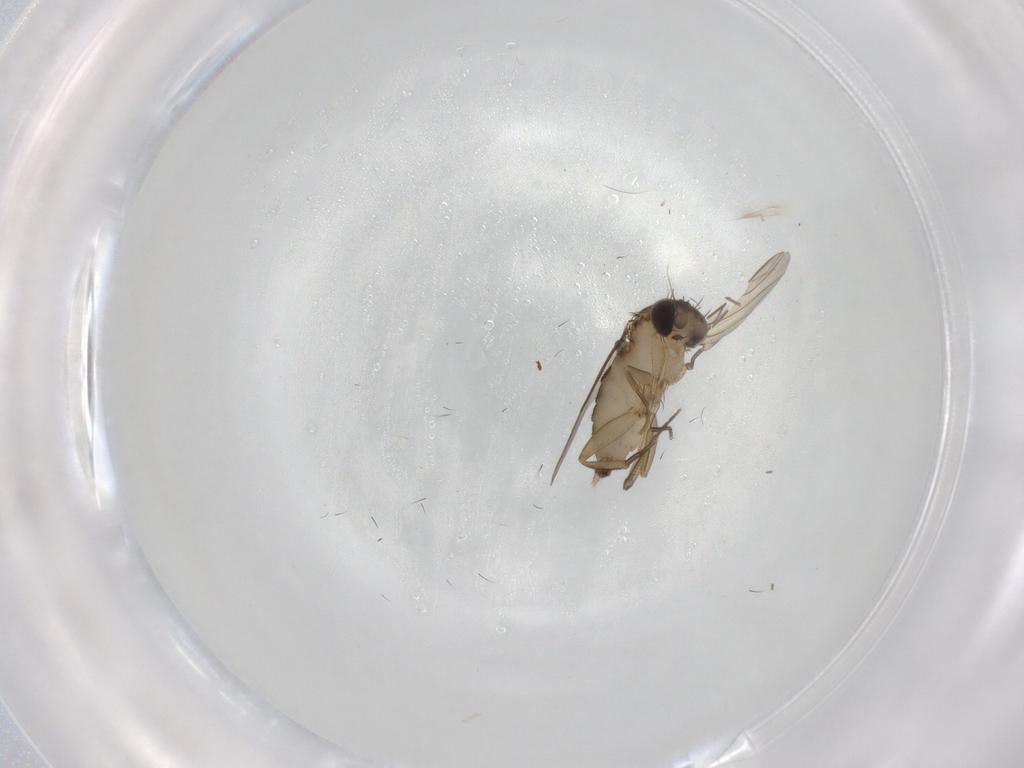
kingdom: Animalia
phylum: Arthropoda
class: Insecta
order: Diptera
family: Phoridae
